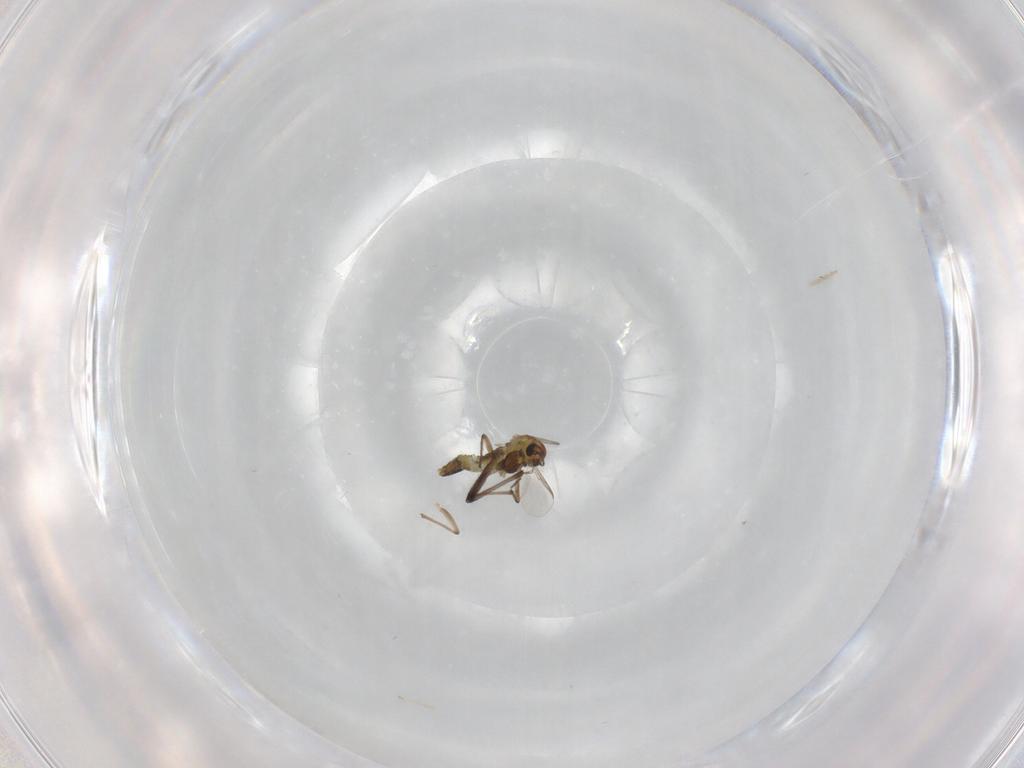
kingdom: Animalia
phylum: Arthropoda
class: Insecta
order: Diptera
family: Chironomidae
